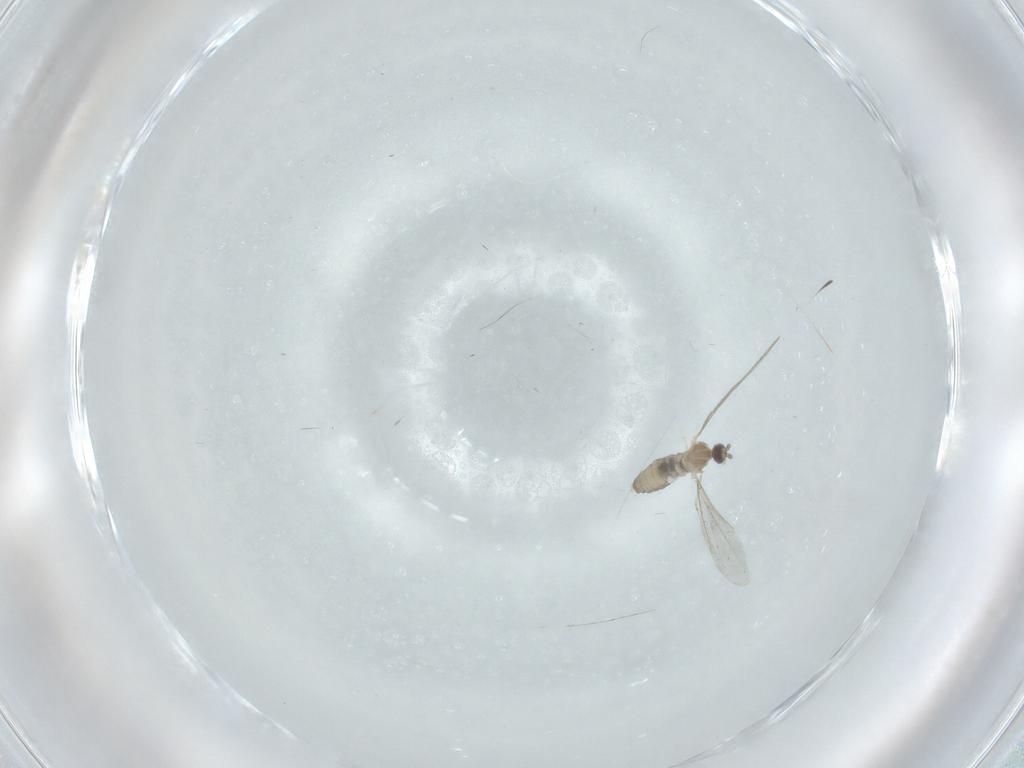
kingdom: Animalia
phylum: Arthropoda
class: Insecta
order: Diptera
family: Cecidomyiidae
